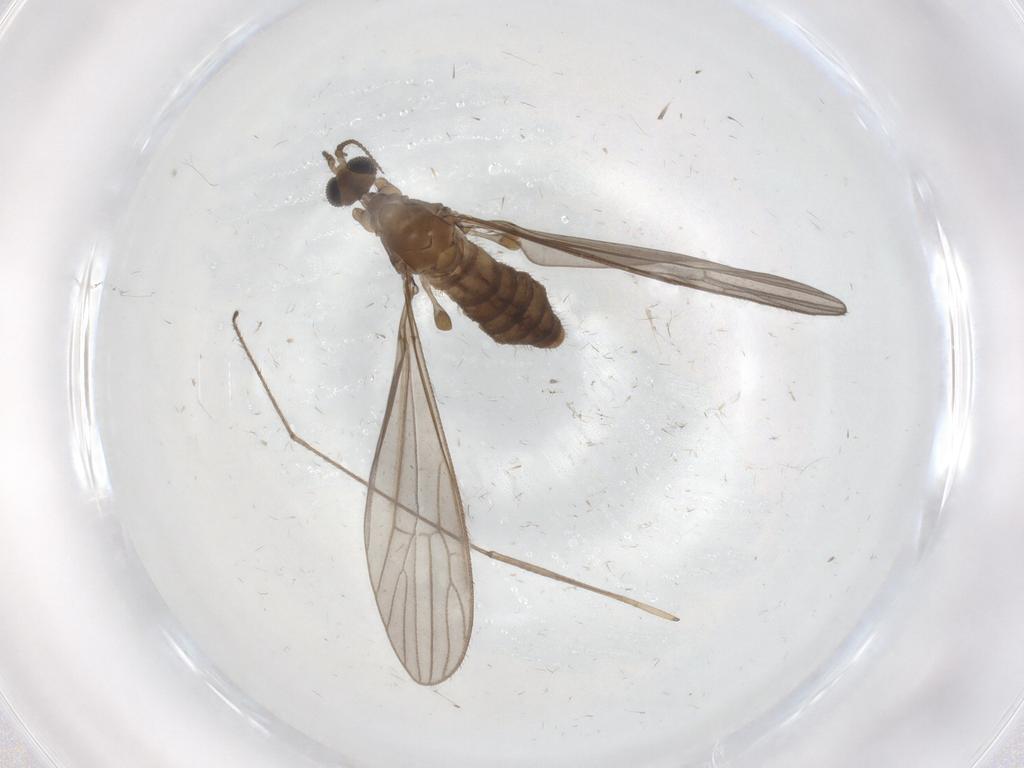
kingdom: Animalia
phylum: Arthropoda
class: Insecta
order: Diptera
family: Limoniidae
